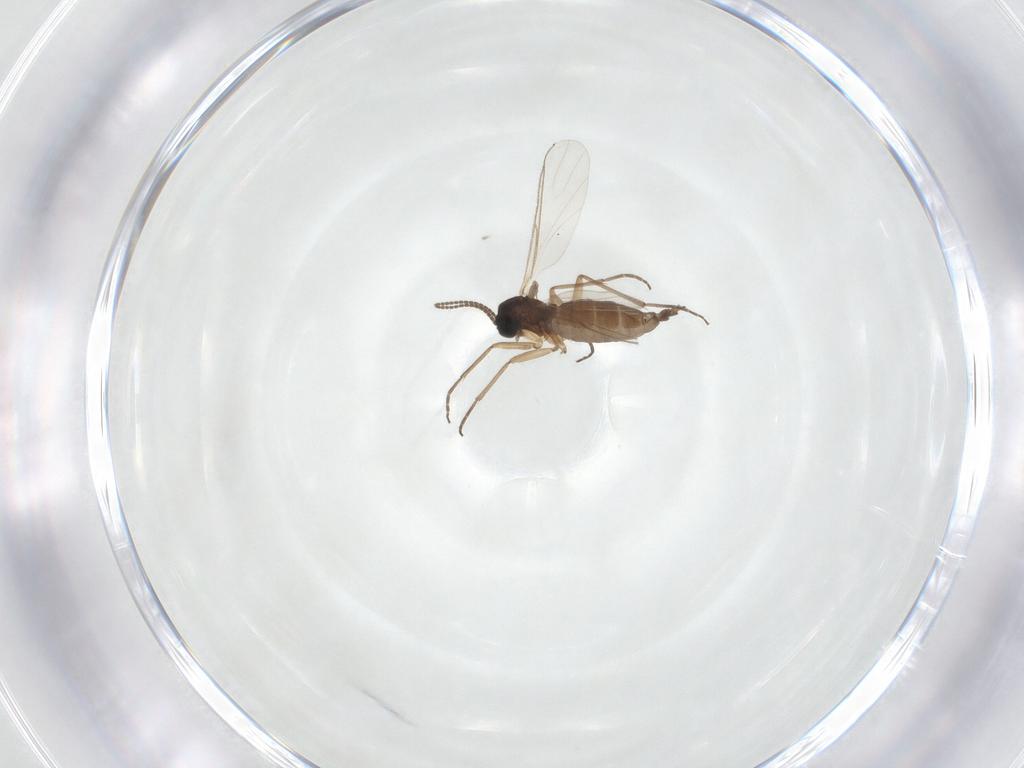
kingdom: Animalia
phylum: Arthropoda
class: Insecta
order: Diptera
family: Sciaridae
